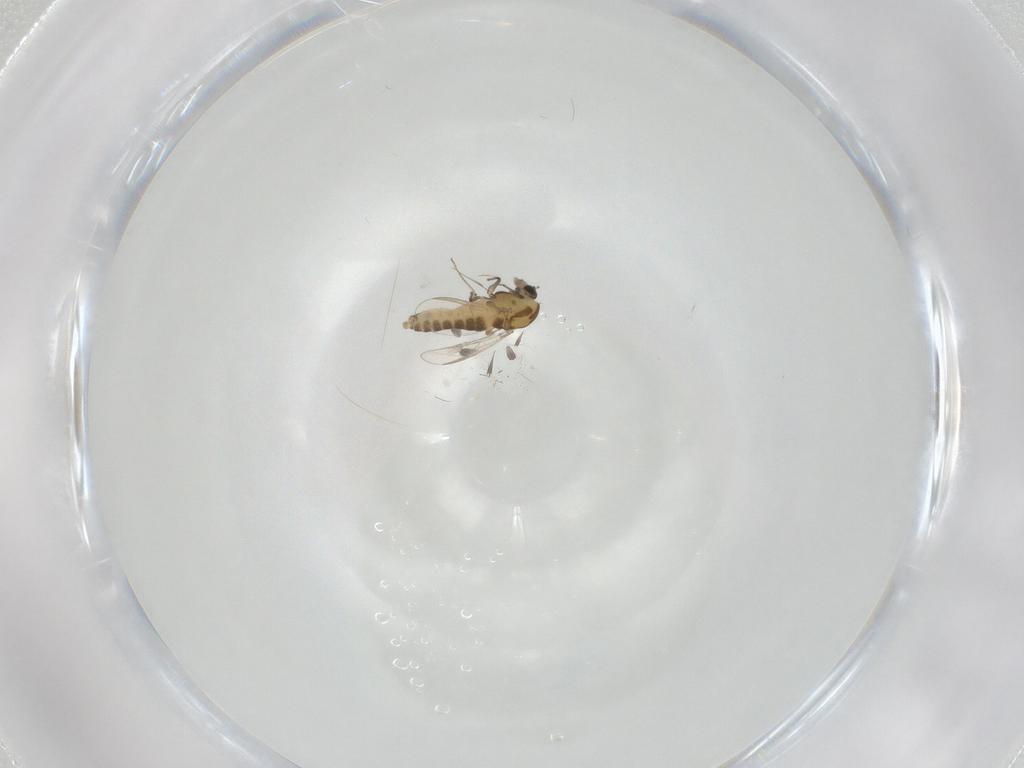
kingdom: Animalia
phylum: Arthropoda
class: Insecta
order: Diptera
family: Chironomidae
